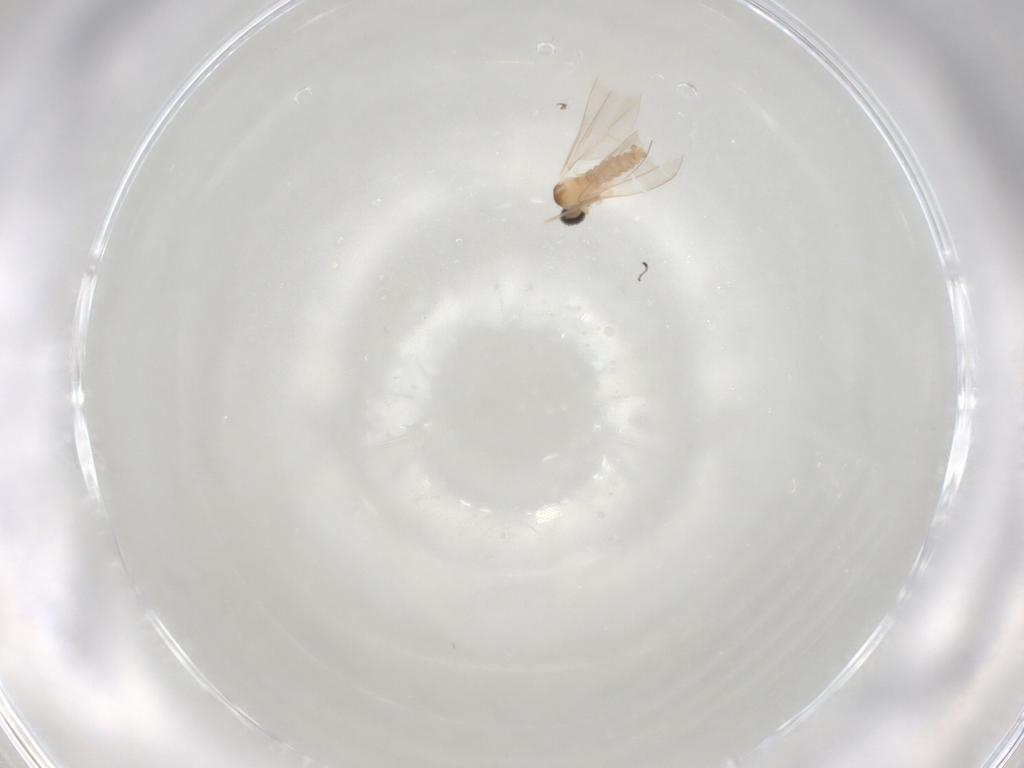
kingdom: Animalia
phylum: Arthropoda
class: Insecta
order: Diptera
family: Cecidomyiidae
